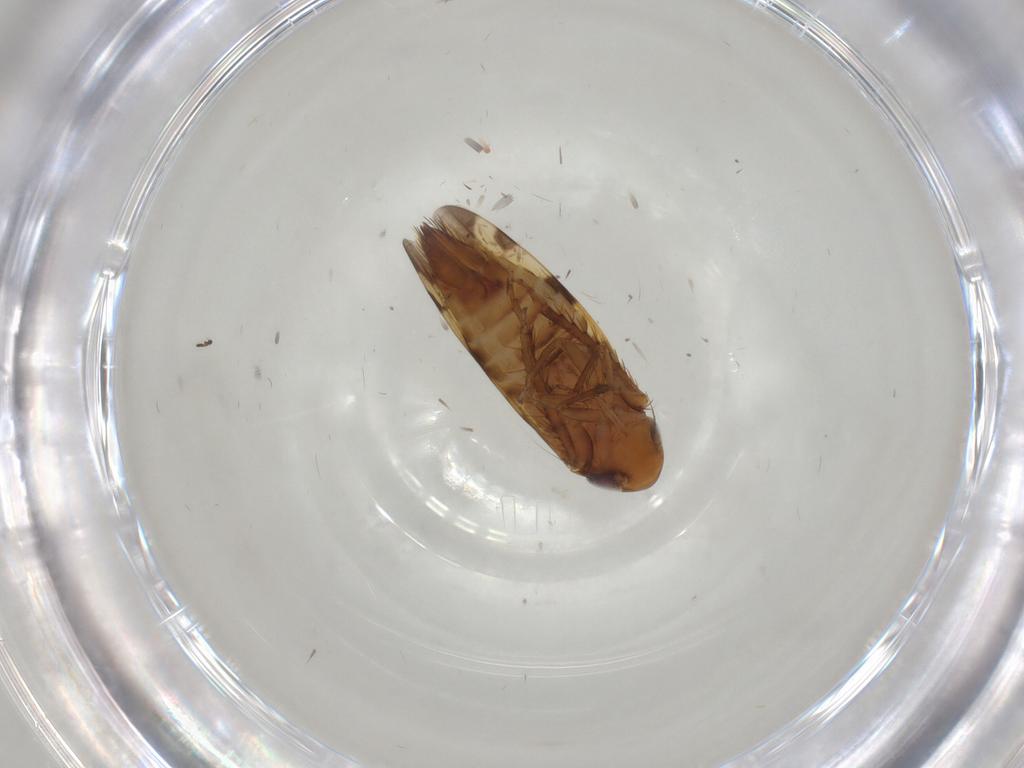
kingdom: Animalia
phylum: Arthropoda
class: Insecta
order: Hemiptera
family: Cicadellidae
